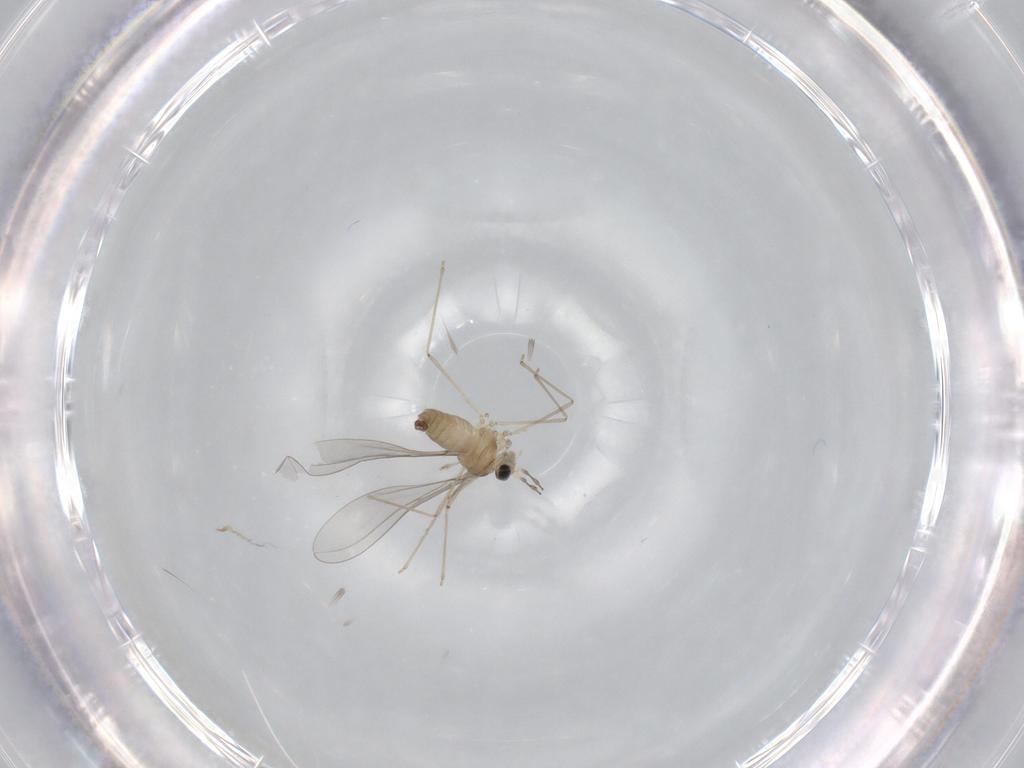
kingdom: Animalia
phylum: Arthropoda
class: Insecta
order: Diptera
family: Cecidomyiidae
